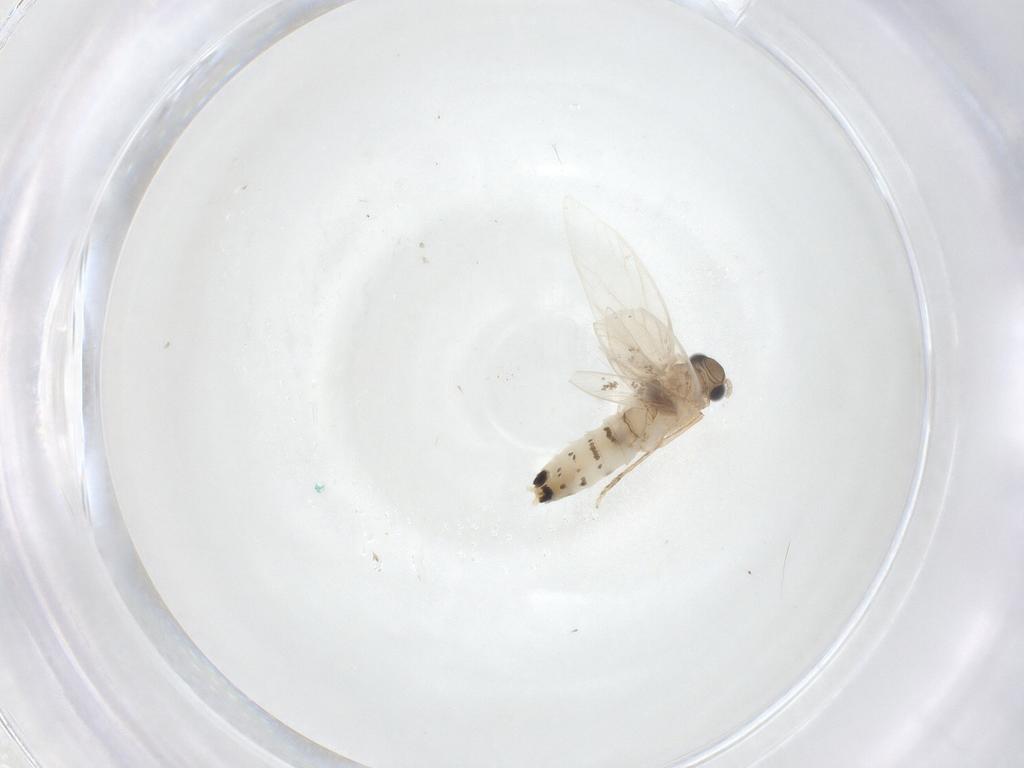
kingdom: Animalia
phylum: Arthropoda
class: Insecta
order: Lepidoptera
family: Dryadaulidae
